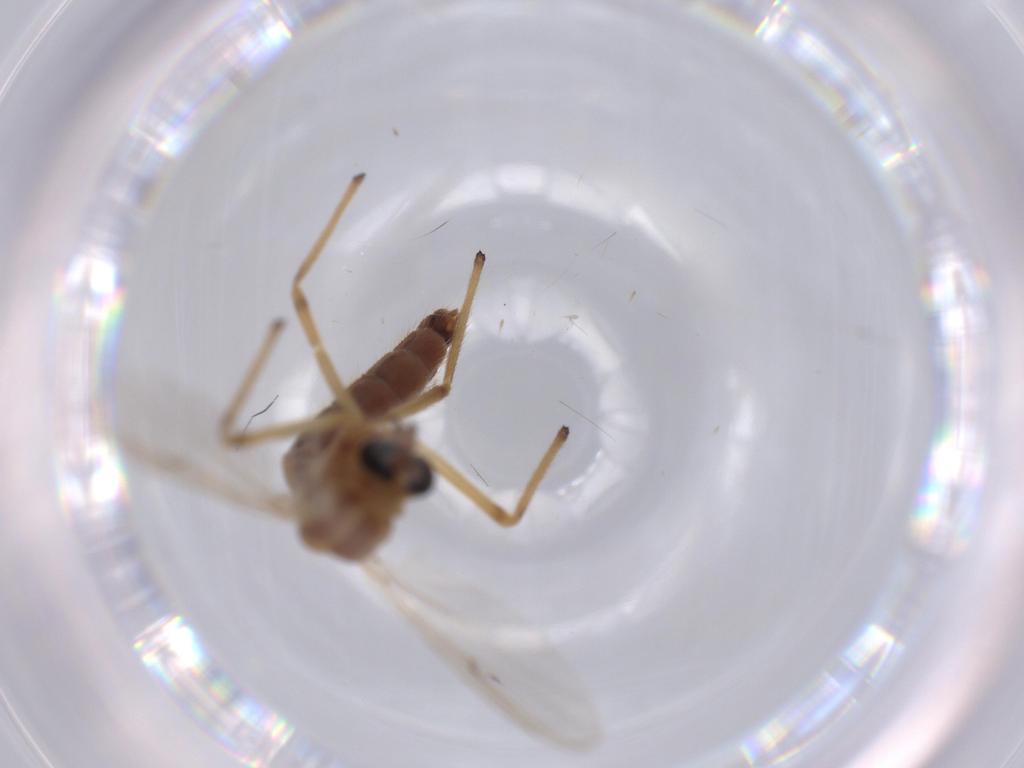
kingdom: Animalia
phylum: Arthropoda
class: Insecta
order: Diptera
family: Chironomidae
